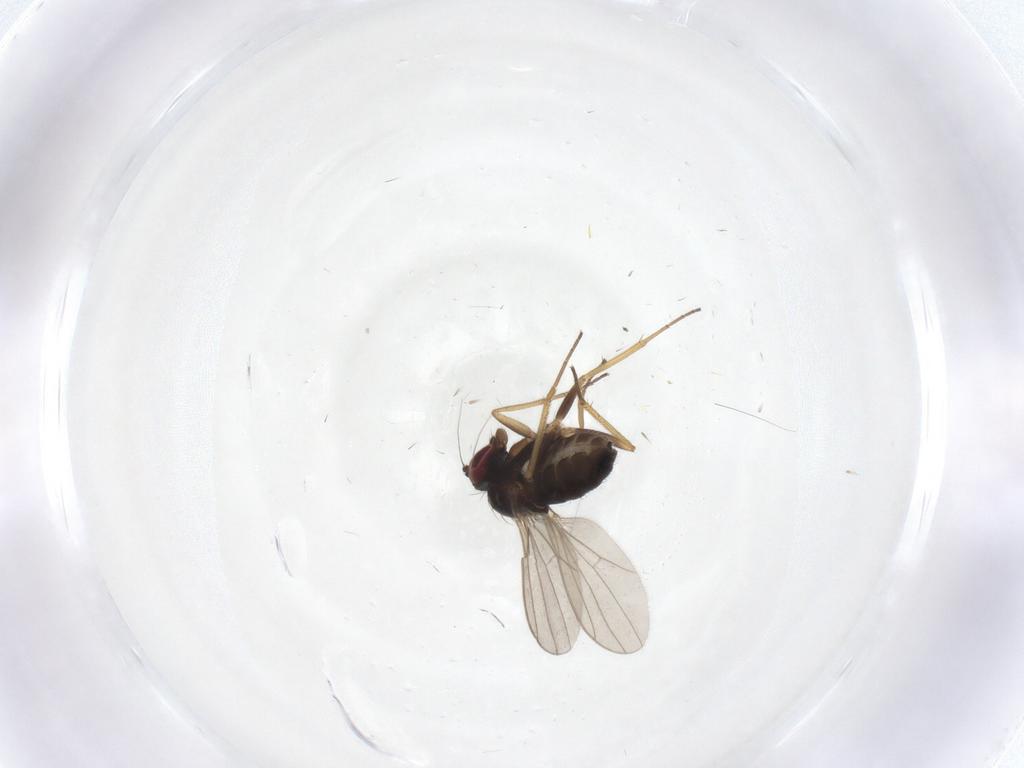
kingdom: Animalia
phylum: Arthropoda
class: Insecta
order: Diptera
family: Dolichopodidae
